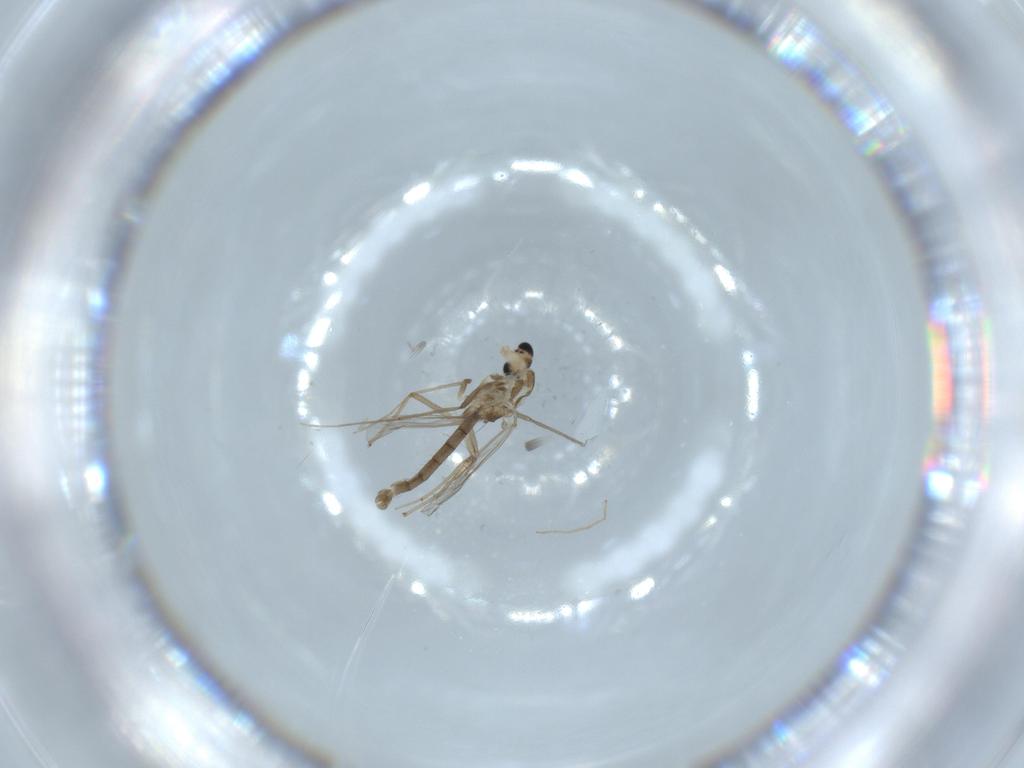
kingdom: Animalia
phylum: Arthropoda
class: Insecta
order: Diptera
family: Chironomidae
